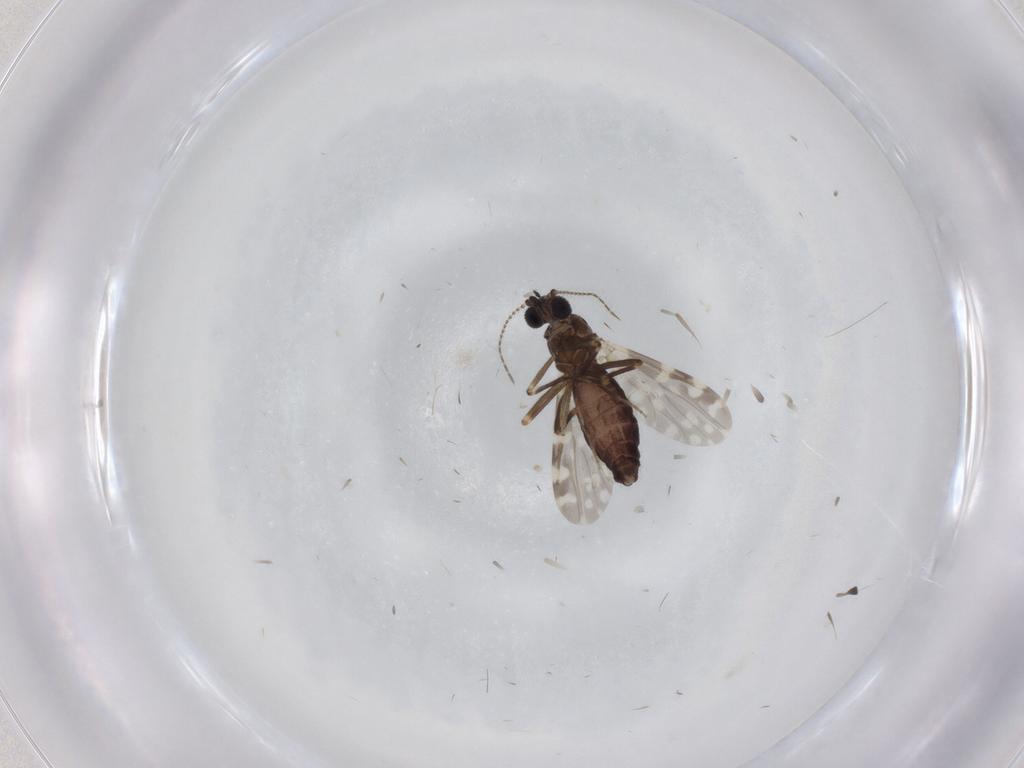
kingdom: Animalia
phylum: Arthropoda
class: Insecta
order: Diptera
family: Ceratopogonidae
